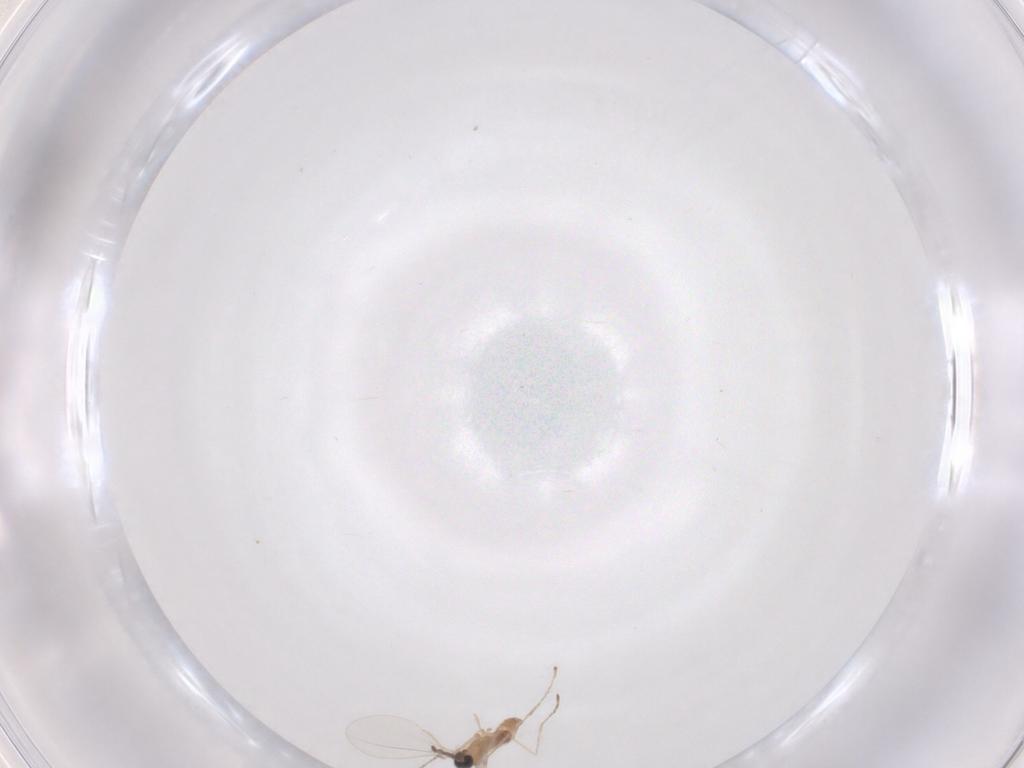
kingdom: Animalia
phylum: Arthropoda
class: Insecta
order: Diptera
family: Cecidomyiidae
